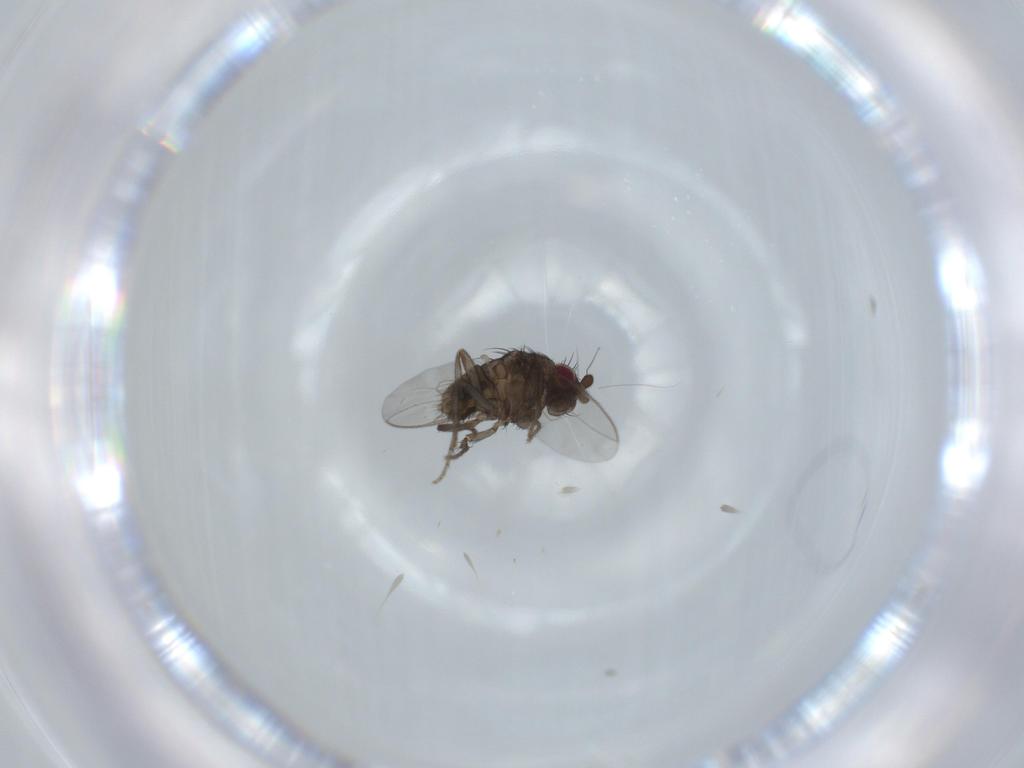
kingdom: Animalia
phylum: Arthropoda
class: Insecta
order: Diptera
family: Sphaeroceridae
